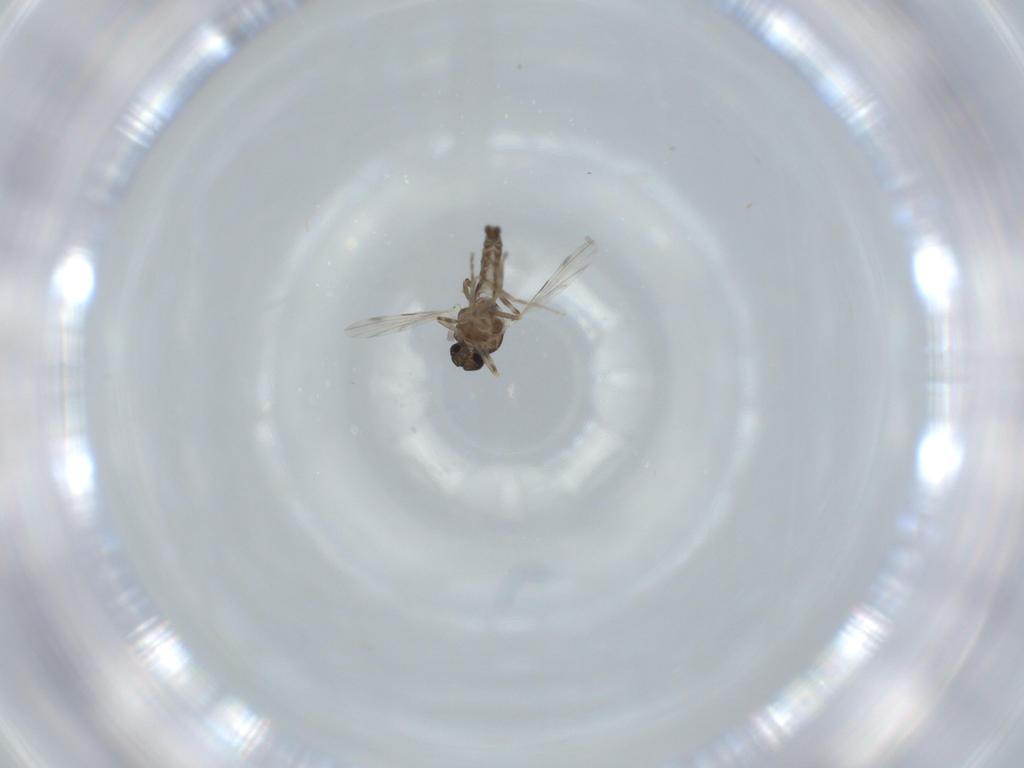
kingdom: Animalia
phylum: Arthropoda
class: Insecta
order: Diptera
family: Ceratopogonidae
